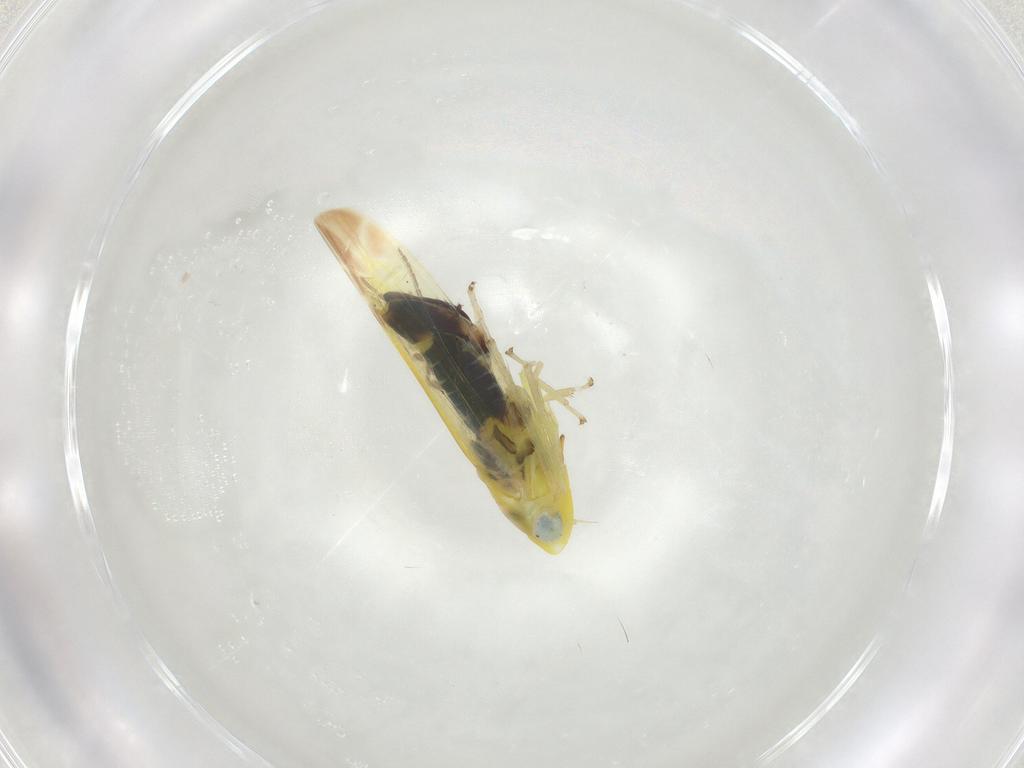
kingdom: Animalia
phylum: Arthropoda
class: Insecta
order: Hemiptera
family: Cicadellidae
